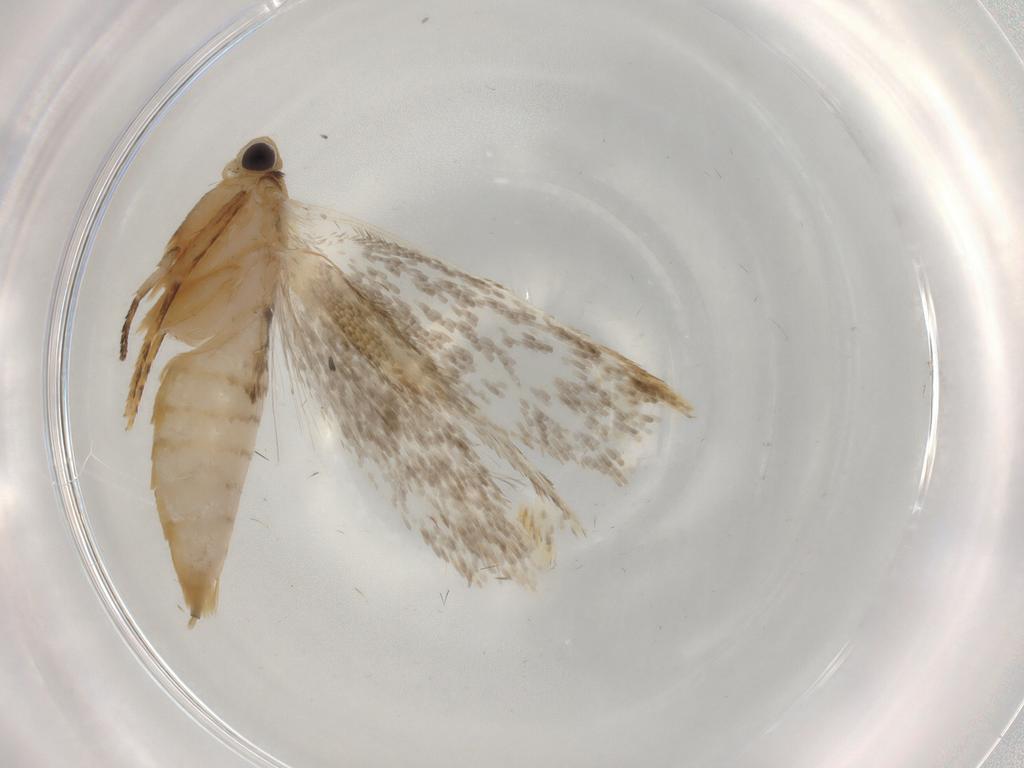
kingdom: Animalia
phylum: Arthropoda
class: Insecta
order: Lepidoptera
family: Tineidae
